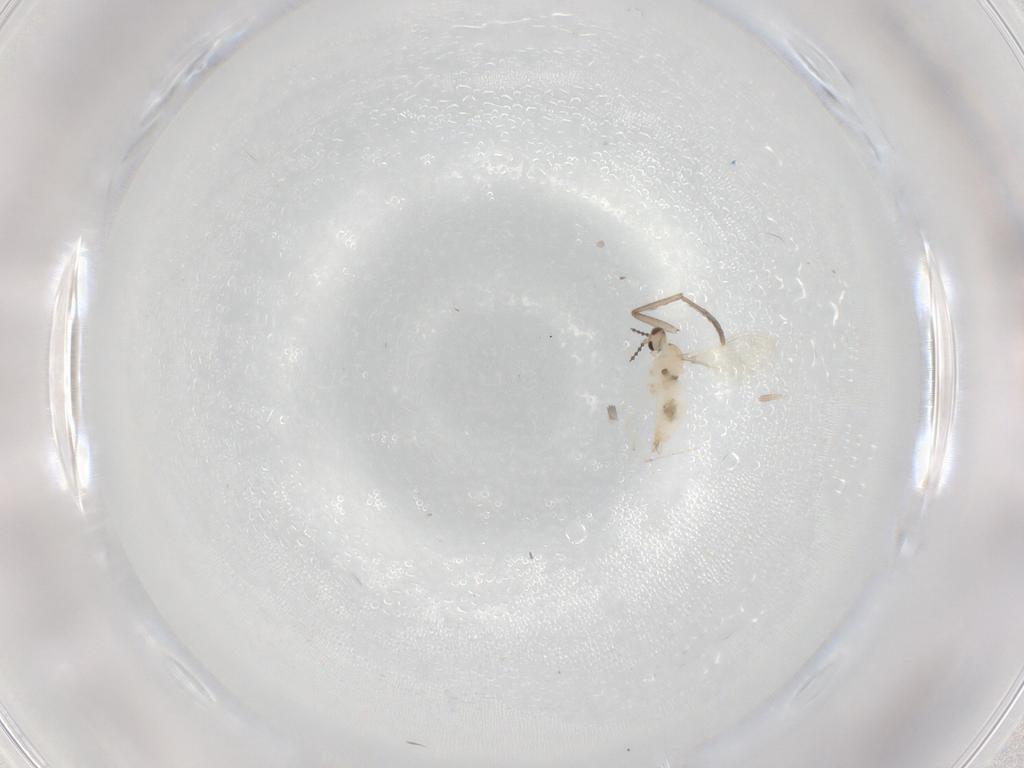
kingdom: Animalia
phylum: Arthropoda
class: Insecta
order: Diptera
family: Cecidomyiidae
